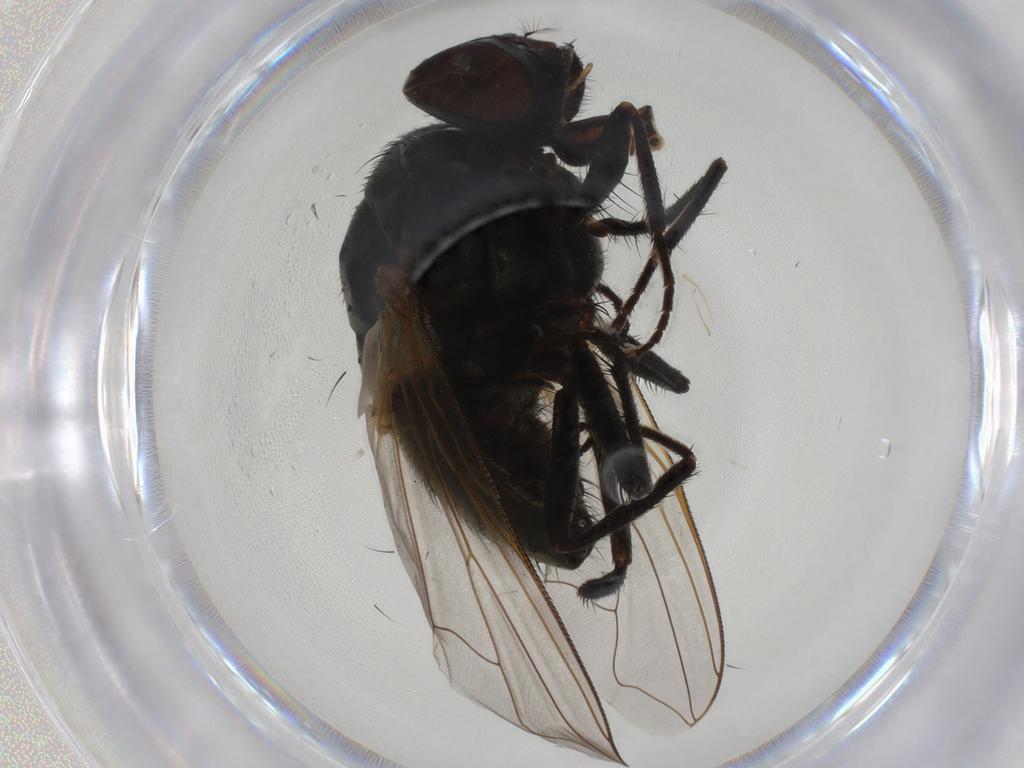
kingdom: Animalia
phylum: Arthropoda
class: Insecta
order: Diptera
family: Muscidae
